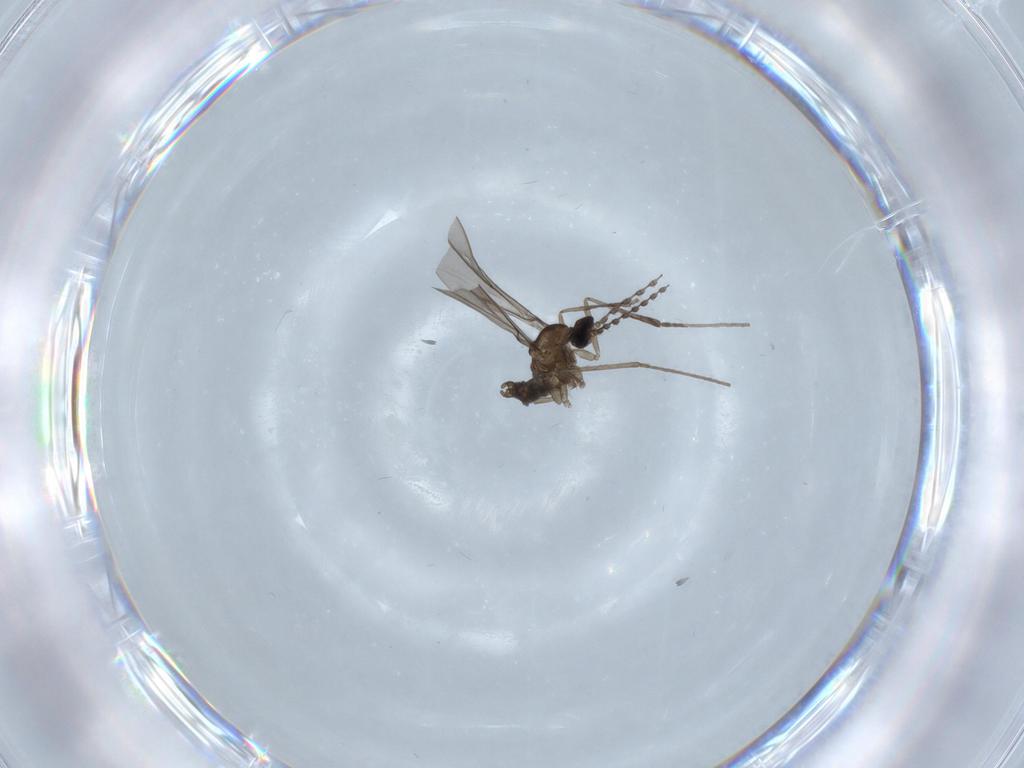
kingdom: Animalia
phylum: Arthropoda
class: Insecta
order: Diptera
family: Cecidomyiidae
